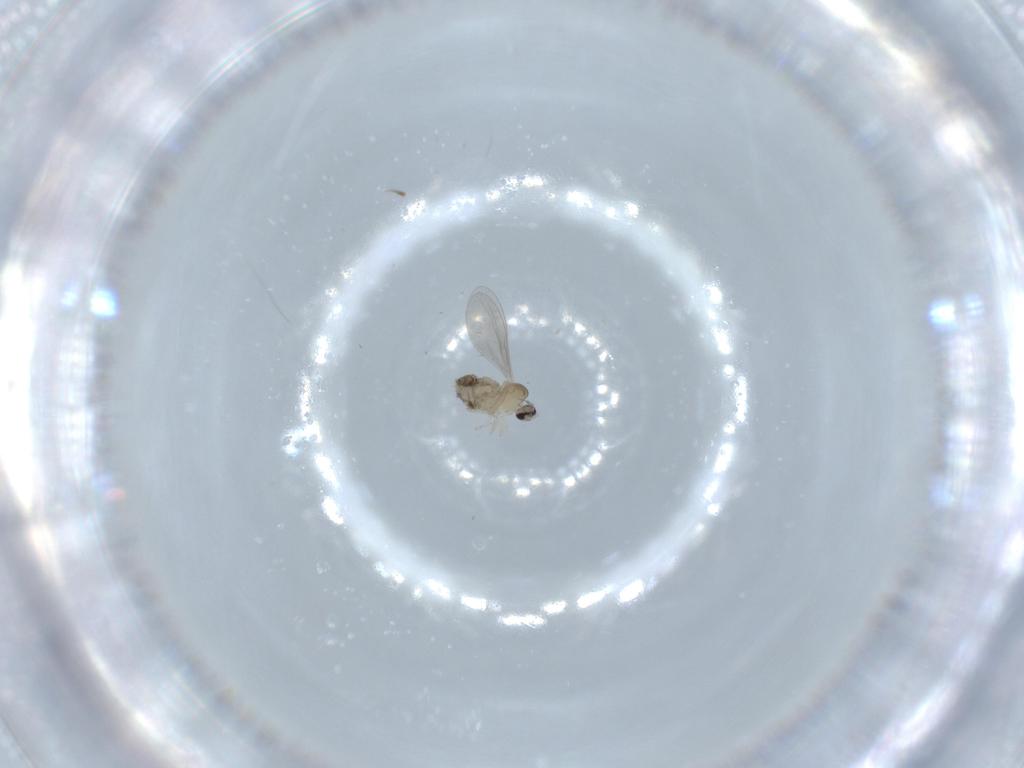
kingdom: Animalia
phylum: Arthropoda
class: Insecta
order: Diptera
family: Cecidomyiidae
